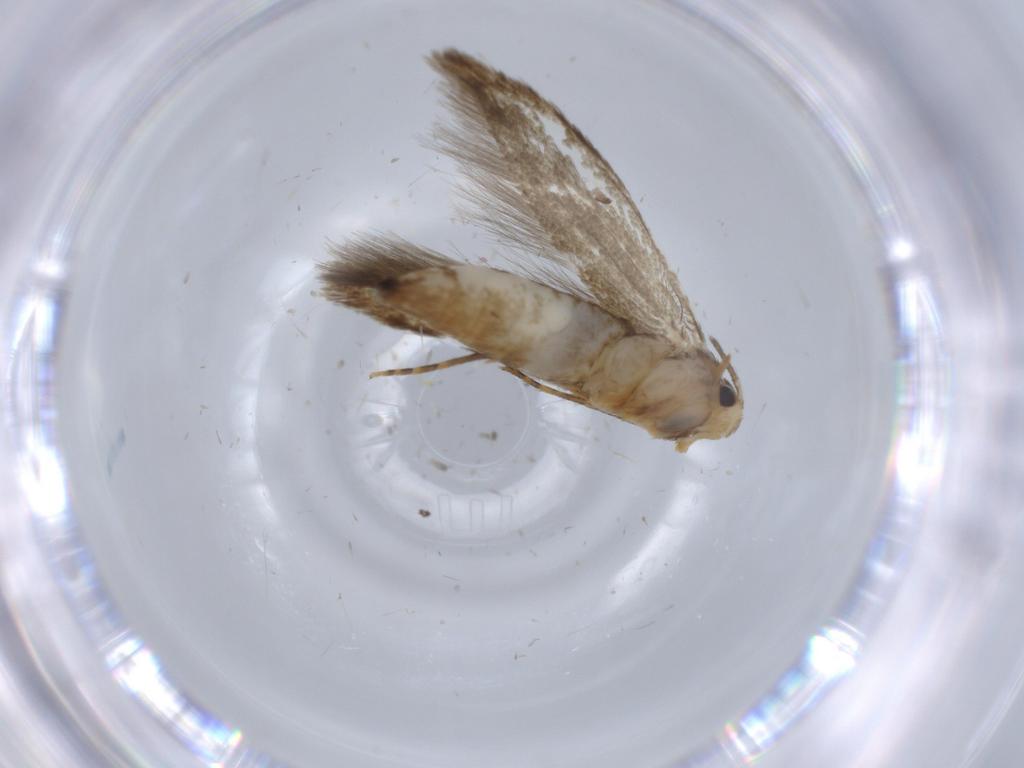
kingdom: Animalia
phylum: Arthropoda
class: Insecta
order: Lepidoptera
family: Tineidae
